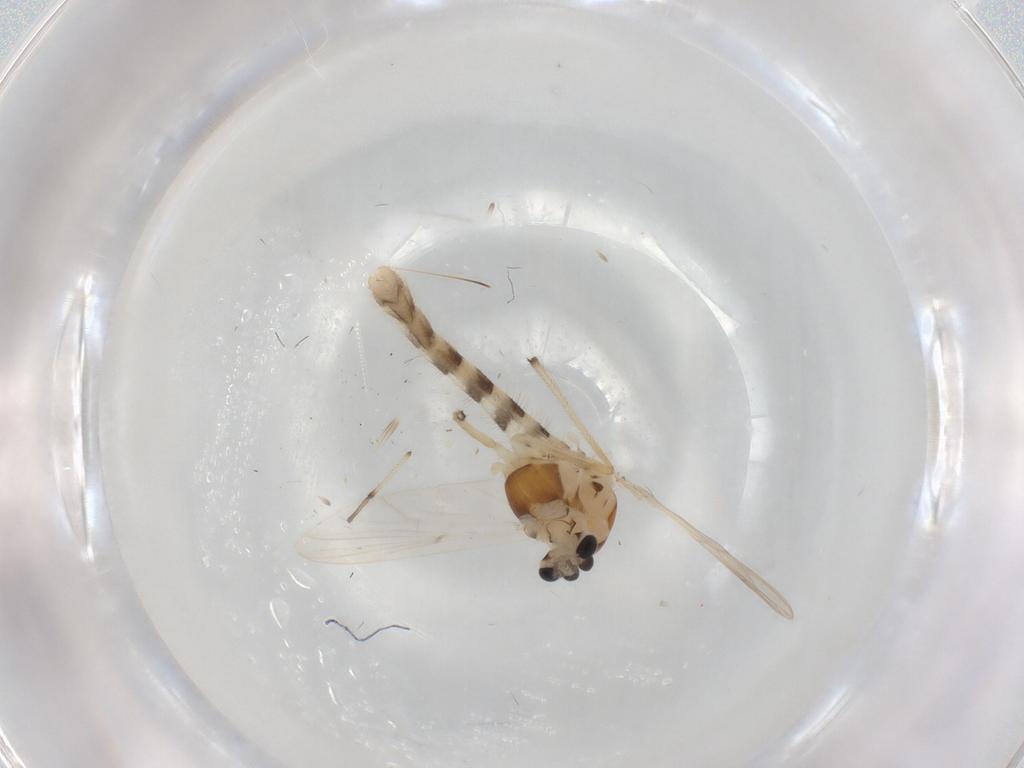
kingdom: Animalia
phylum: Arthropoda
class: Insecta
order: Diptera
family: Chironomidae
